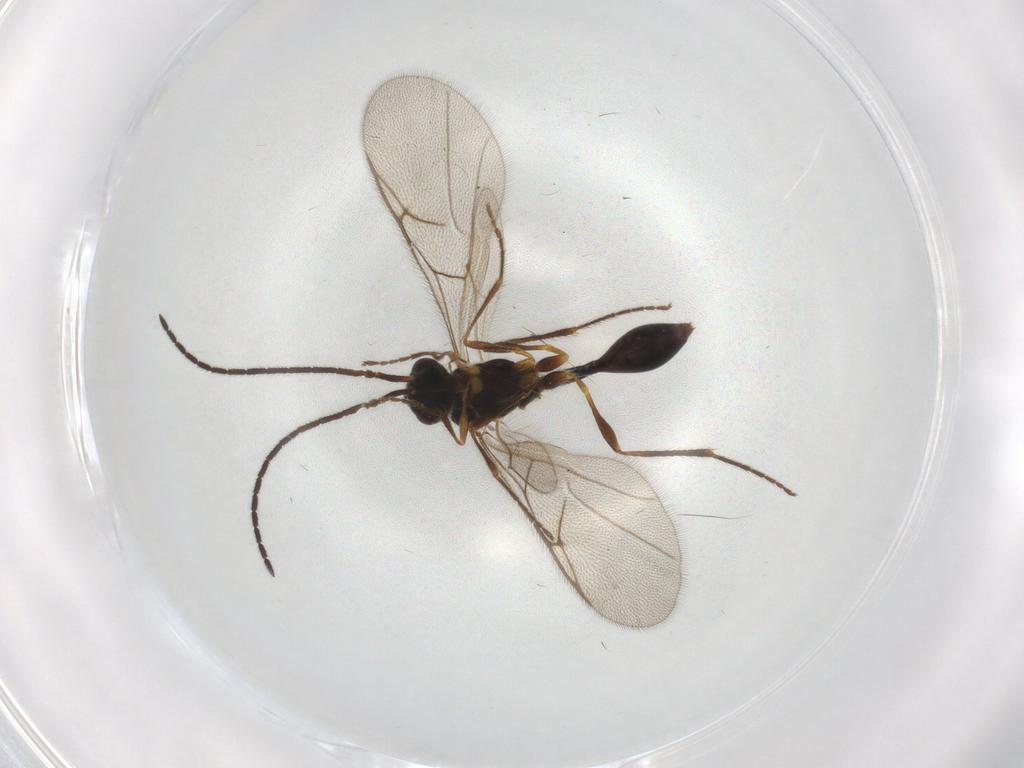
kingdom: Animalia
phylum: Arthropoda
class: Insecta
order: Hymenoptera
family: Diapriidae
